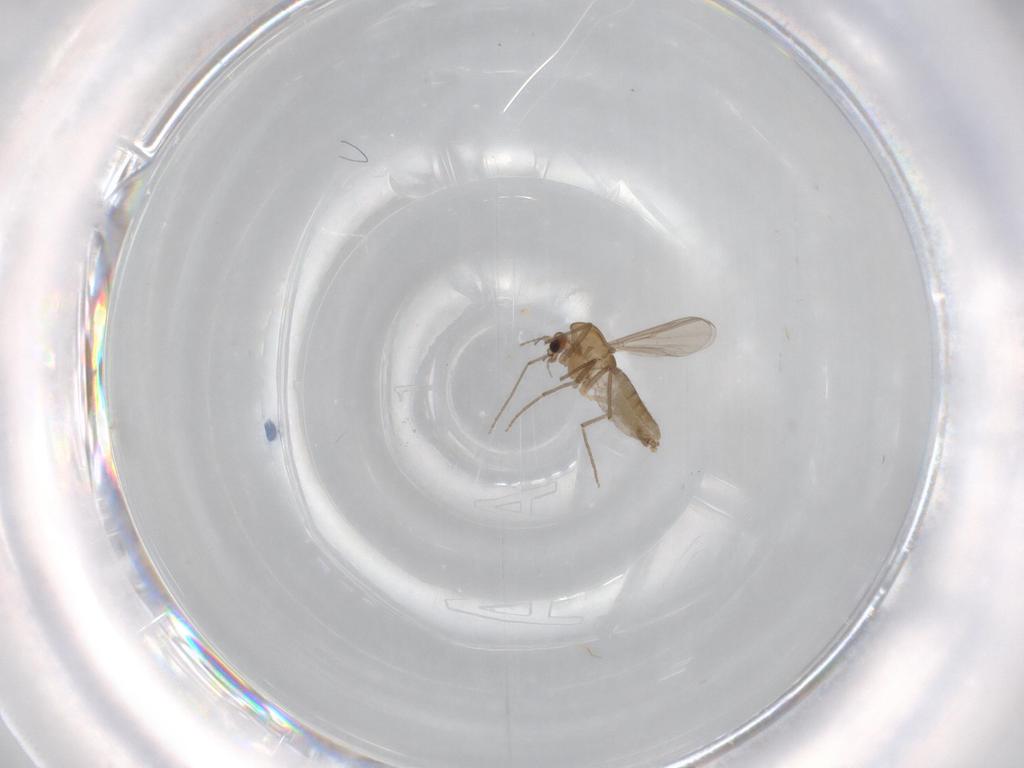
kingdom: Animalia
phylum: Arthropoda
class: Insecta
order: Diptera
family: Chironomidae
